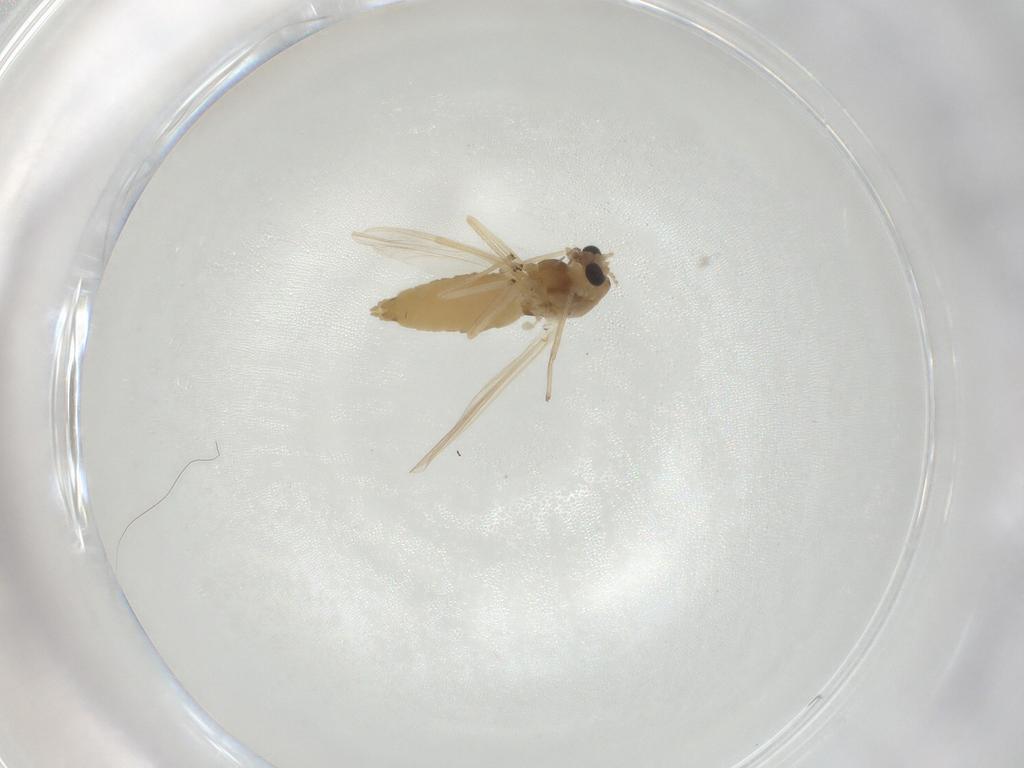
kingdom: Animalia
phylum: Arthropoda
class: Insecta
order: Diptera
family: Chironomidae
